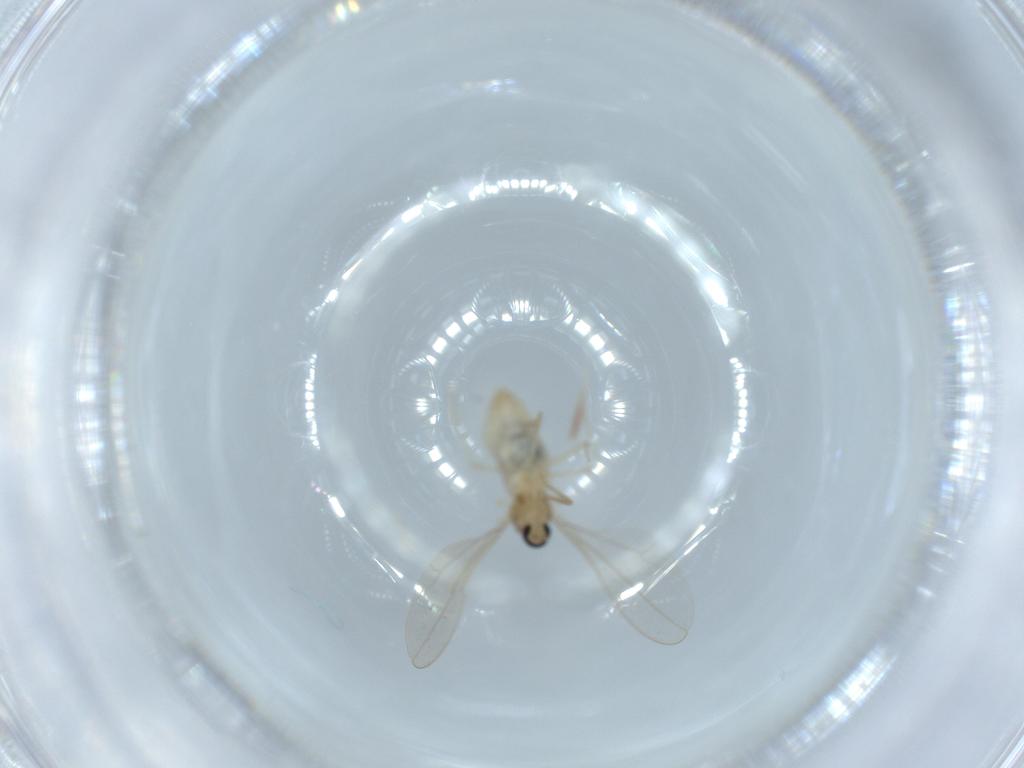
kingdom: Animalia
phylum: Arthropoda
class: Insecta
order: Diptera
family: Cecidomyiidae
